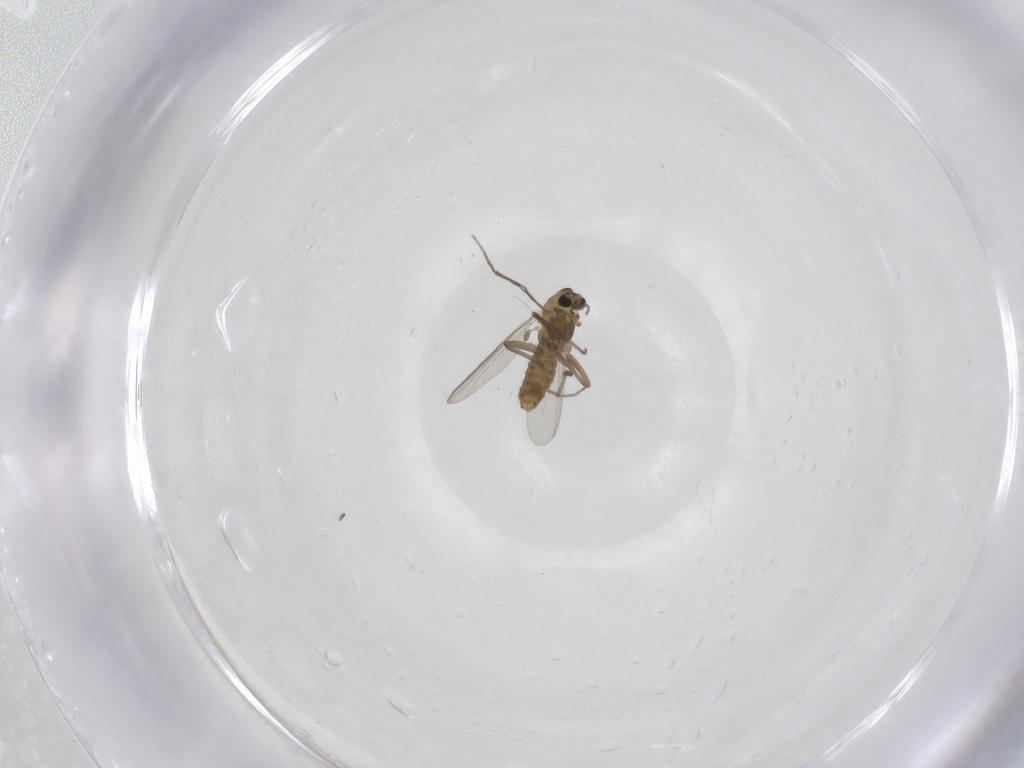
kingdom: Animalia
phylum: Arthropoda
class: Insecta
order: Diptera
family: Chironomidae
